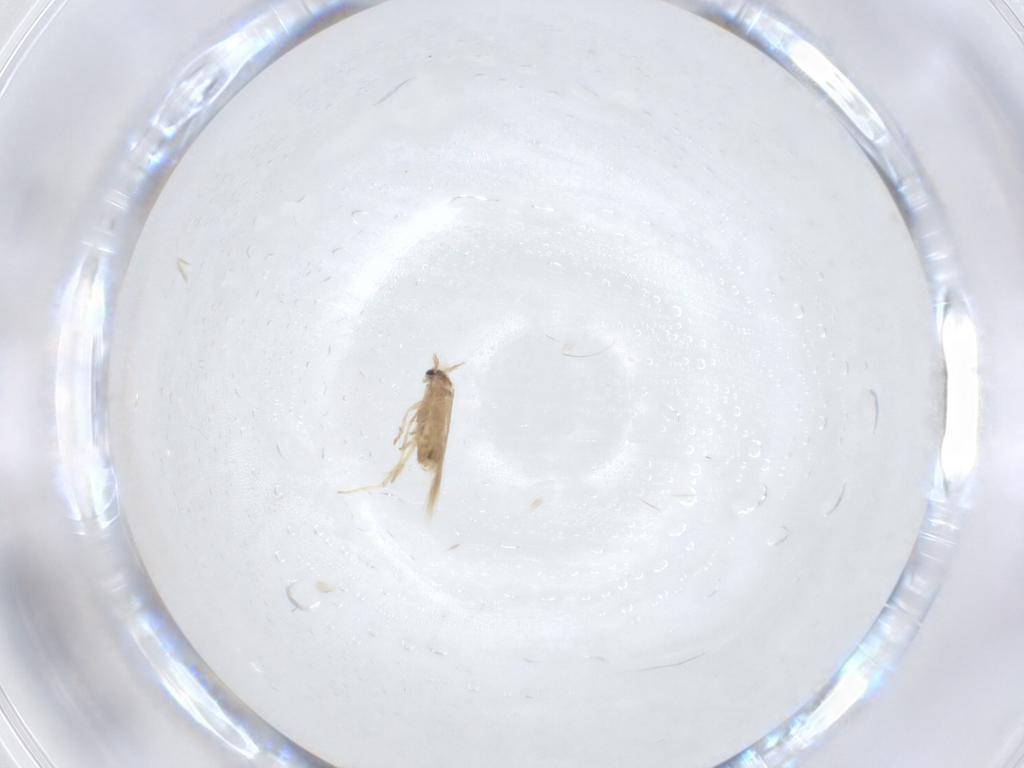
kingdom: Animalia
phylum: Arthropoda
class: Insecta
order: Lepidoptera
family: Nepticulidae
